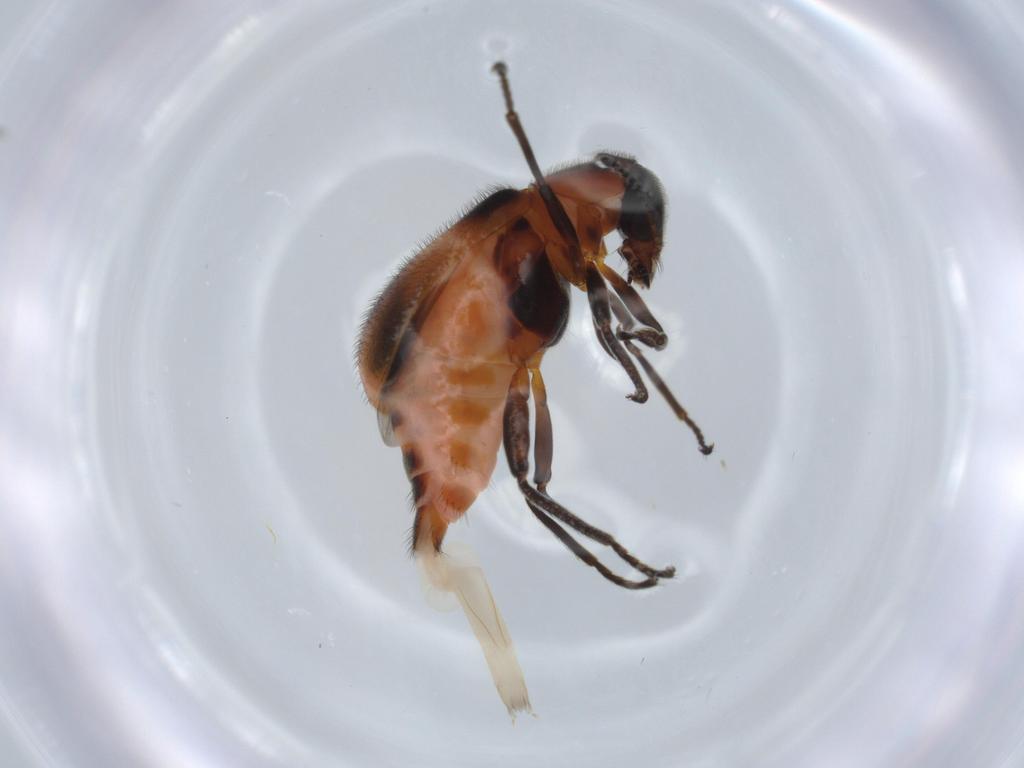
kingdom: Animalia
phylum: Arthropoda
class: Insecta
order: Coleoptera
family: Melyridae
